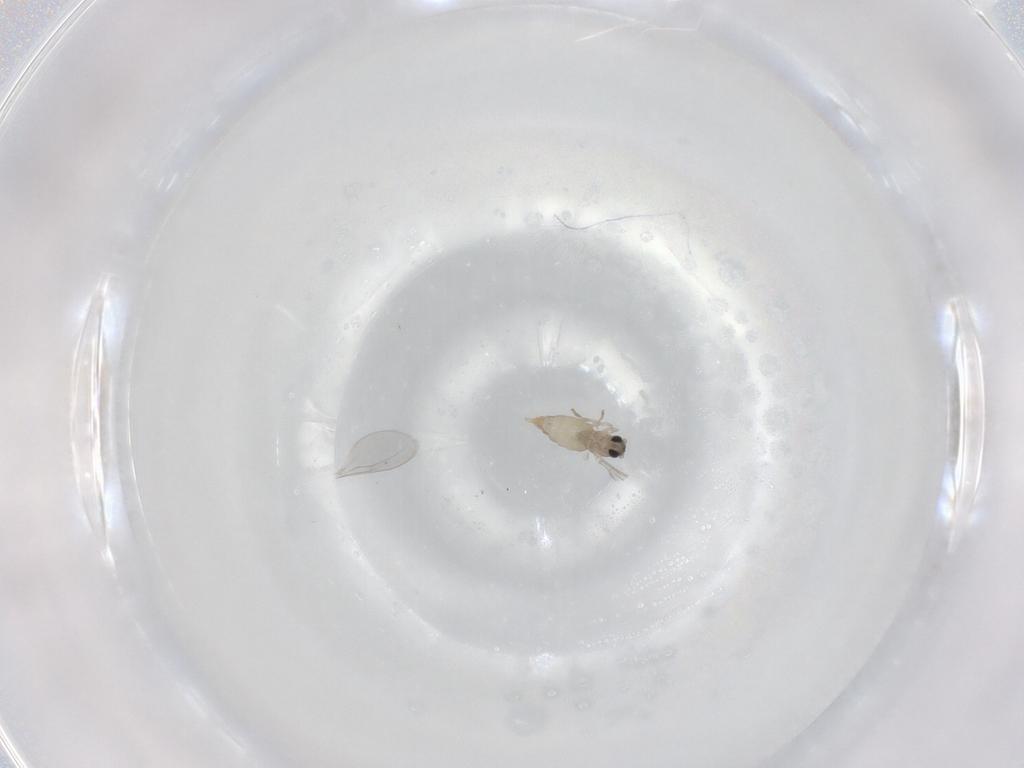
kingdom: Animalia
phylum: Arthropoda
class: Insecta
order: Diptera
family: Cecidomyiidae
